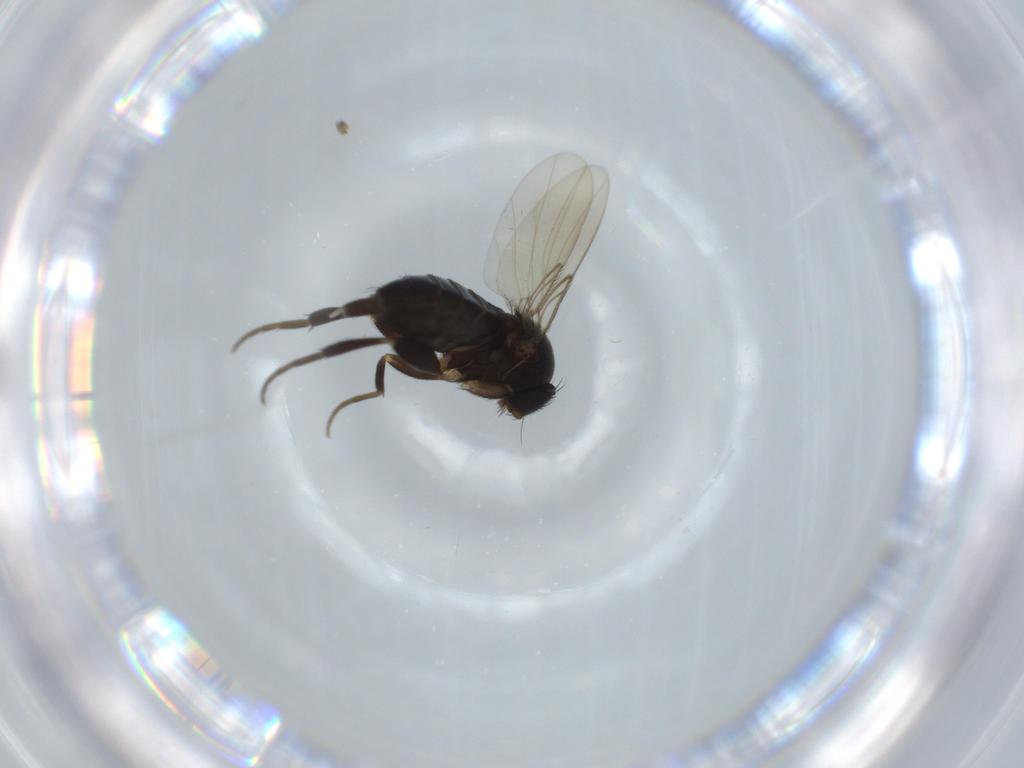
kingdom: Animalia
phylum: Arthropoda
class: Insecta
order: Diptera
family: Phoridae
